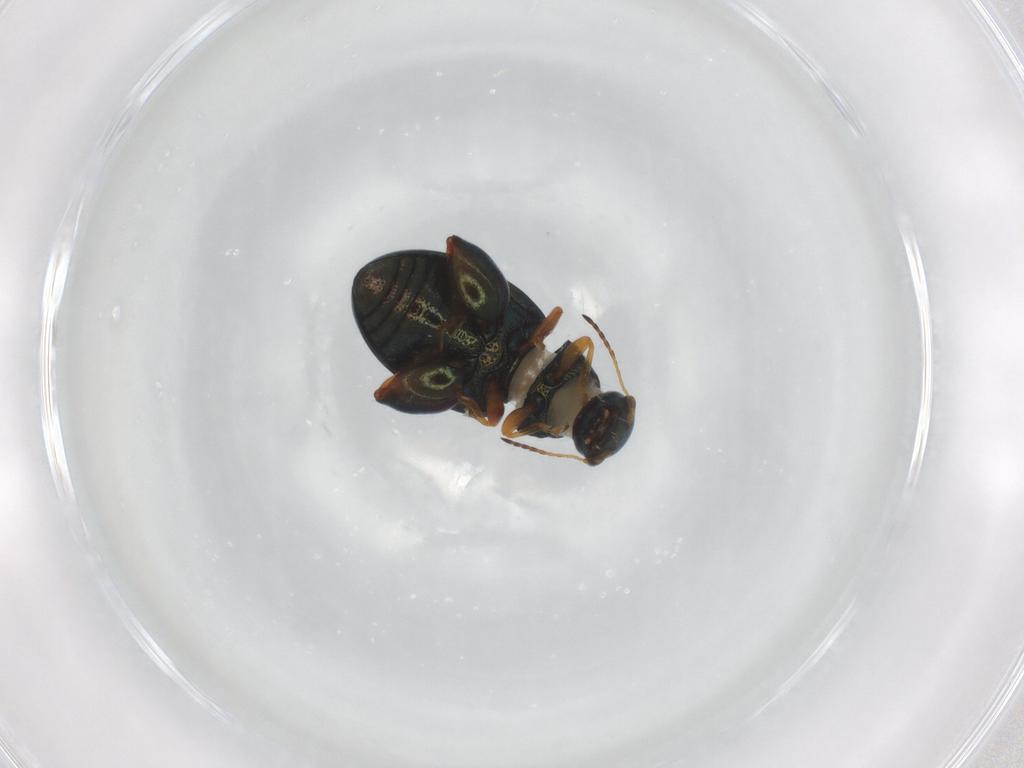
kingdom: Animalia
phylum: Arthropoda
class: Insecta
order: Coleoptera
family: Chrysomelidae
